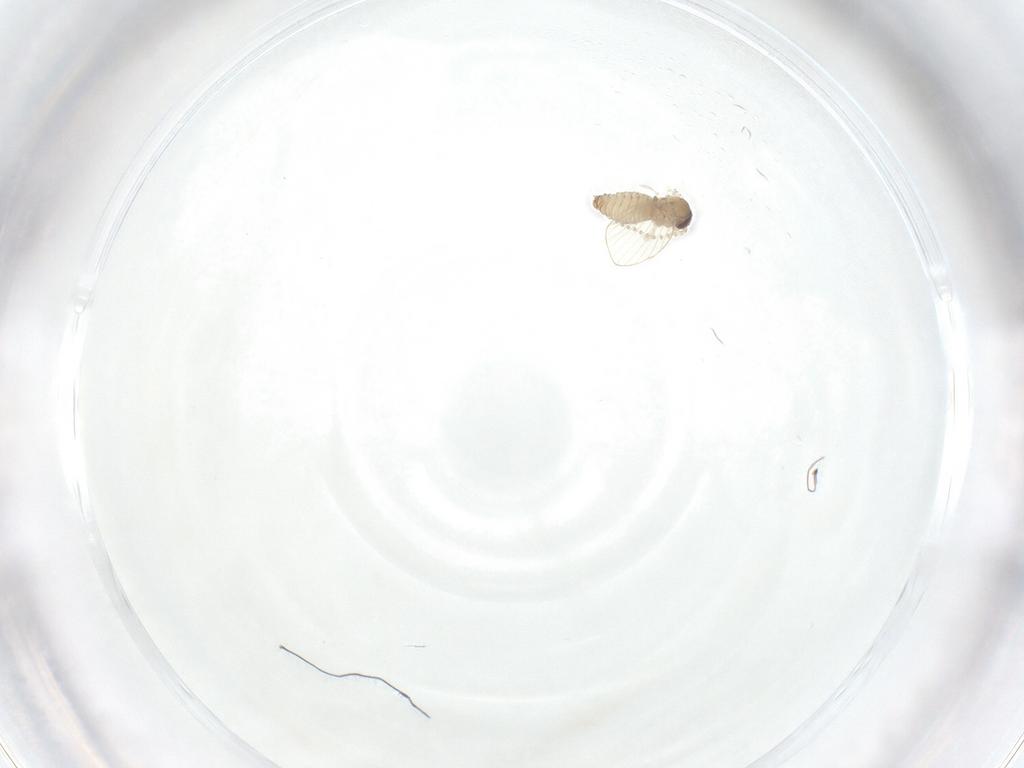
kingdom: Animalia
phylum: Arthropoda
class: Insecta
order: Diptera
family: Psychodidae
